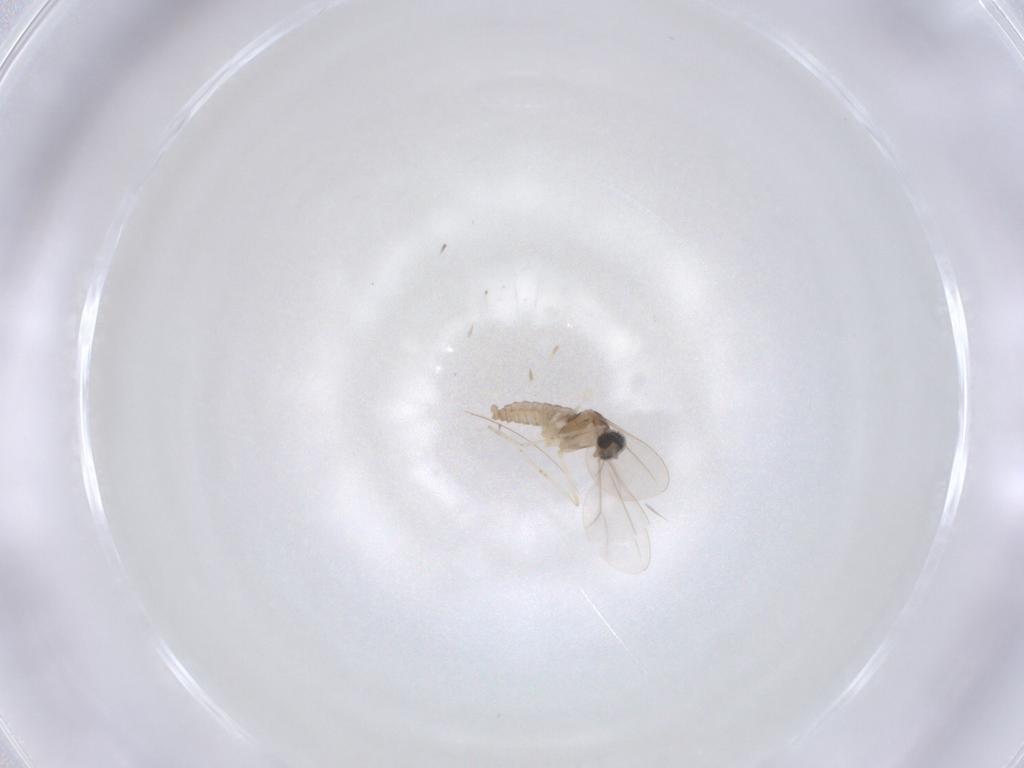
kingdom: Animalia
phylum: Arthropoda
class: Insecta
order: Diptera
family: Cecidomyiidae
